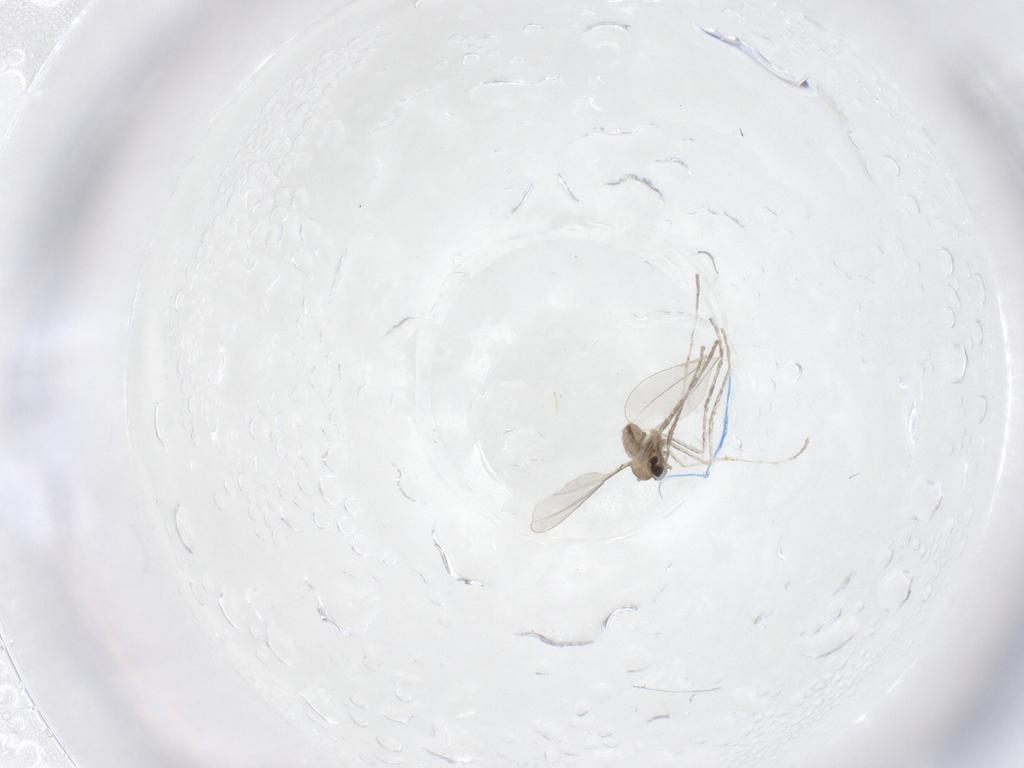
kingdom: Animalia
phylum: Arthropoda
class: Insecta
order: Diptera
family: Cecidomyiidae
